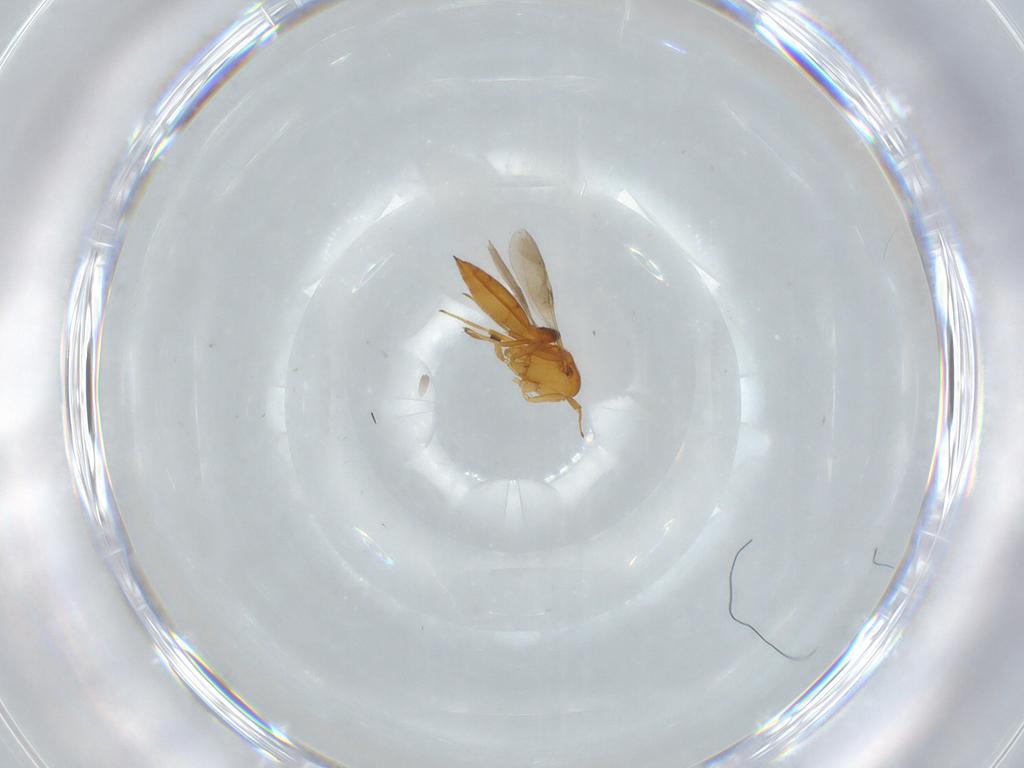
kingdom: Animalia
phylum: Arthropoda
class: Insecta
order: Hymenoptera
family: Scelionidae
